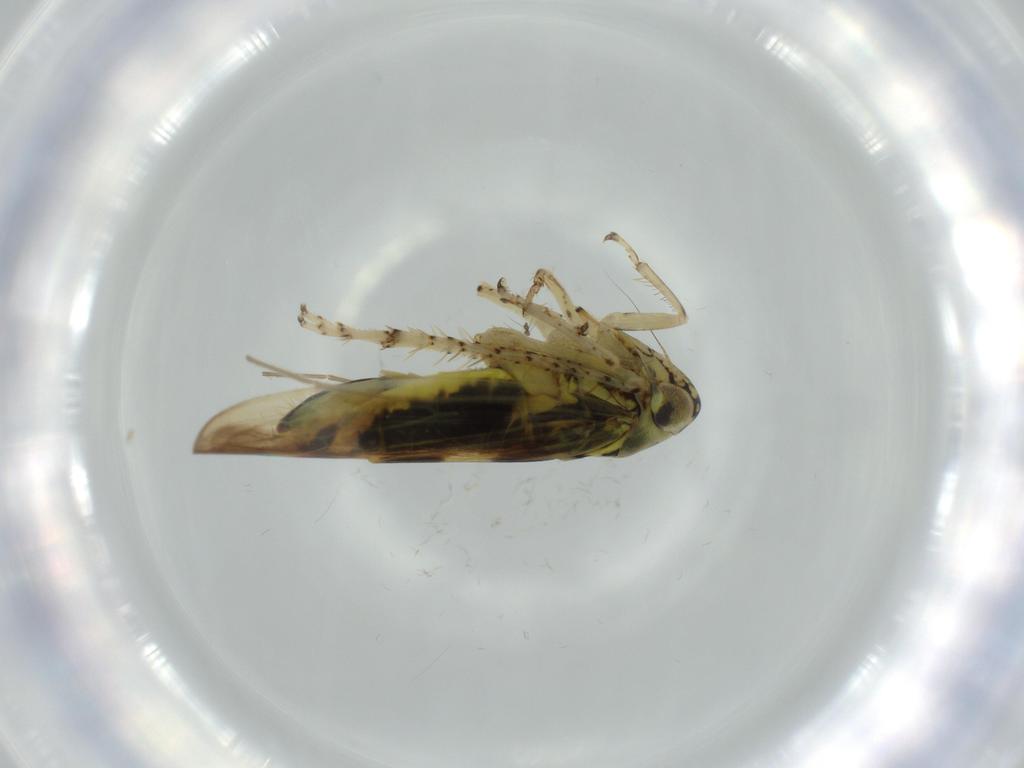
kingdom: Animalia
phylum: Arthropoda
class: Insecta
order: Hemiptera
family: Cicadellidae
